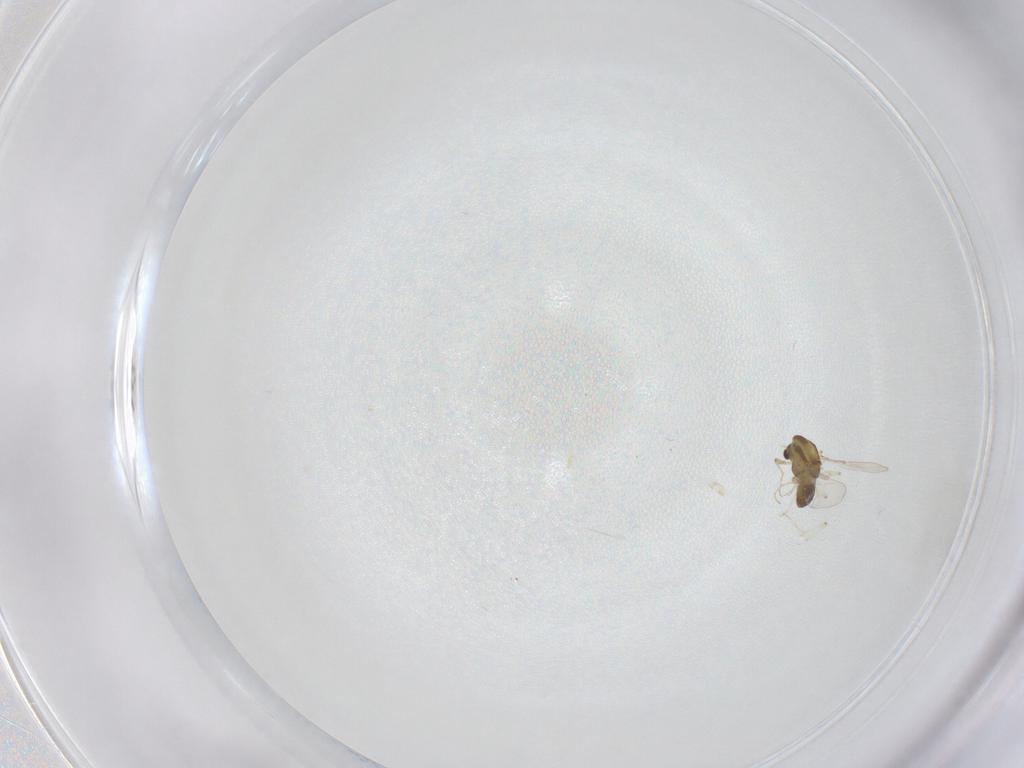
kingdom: Animalia
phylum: Arthropoda
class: Insecta
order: Diptera
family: Chironomidae
